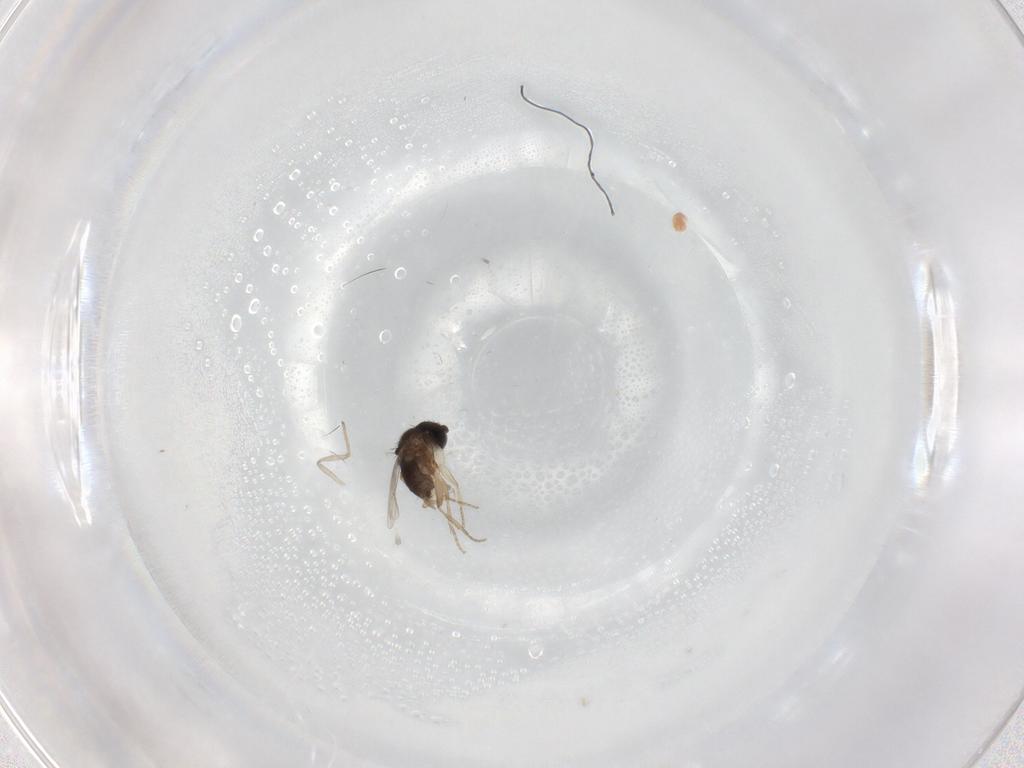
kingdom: Animalia
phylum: Arthropoda
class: Insecta
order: Diptera
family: Phoridae
